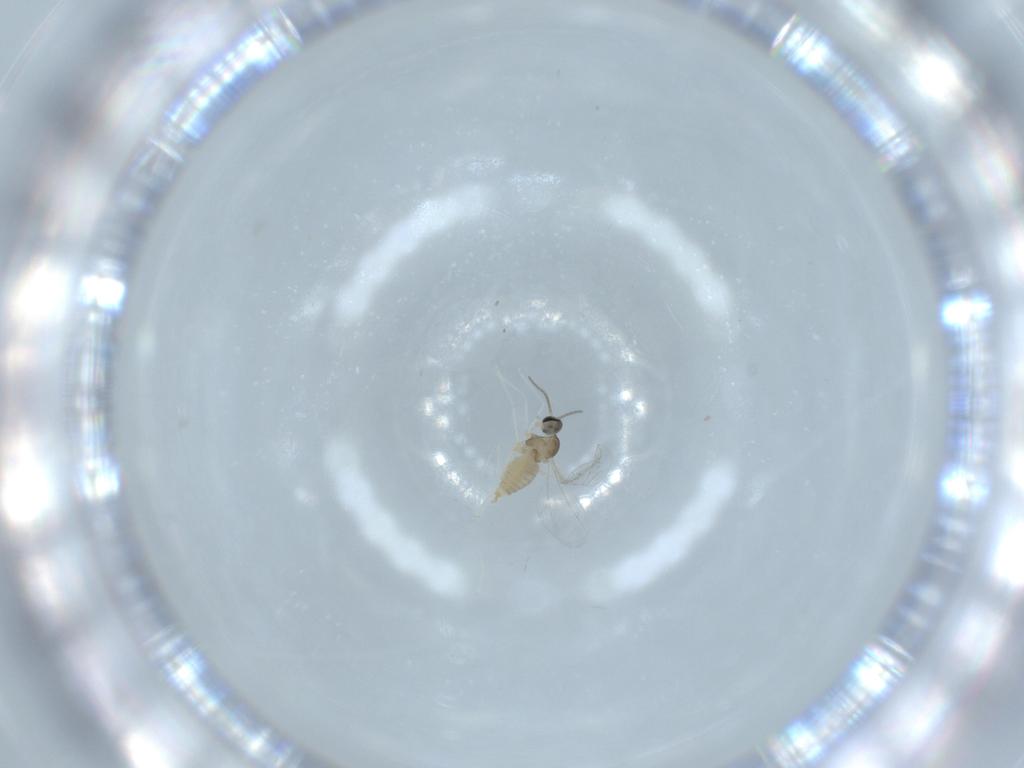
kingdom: Animalia
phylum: Arthropoda
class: Insecta
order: Diptera
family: Cecidomyiidae
